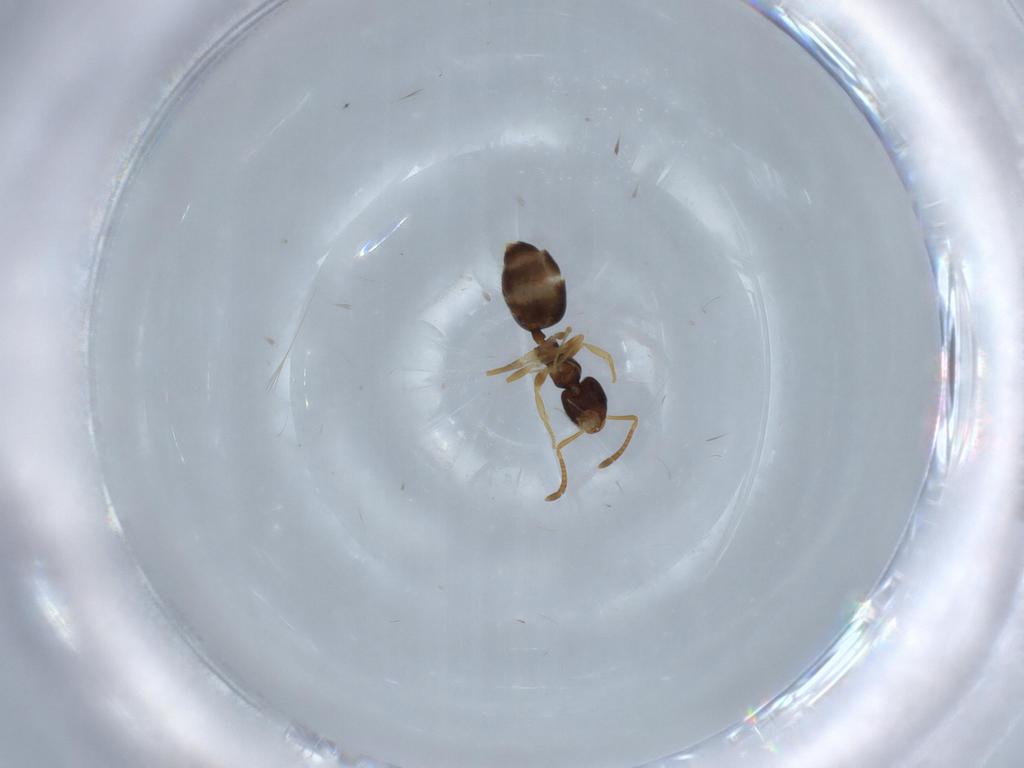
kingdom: Animalia
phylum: Arthropoda
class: Insecta
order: Hymenoptera
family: Formicidae
